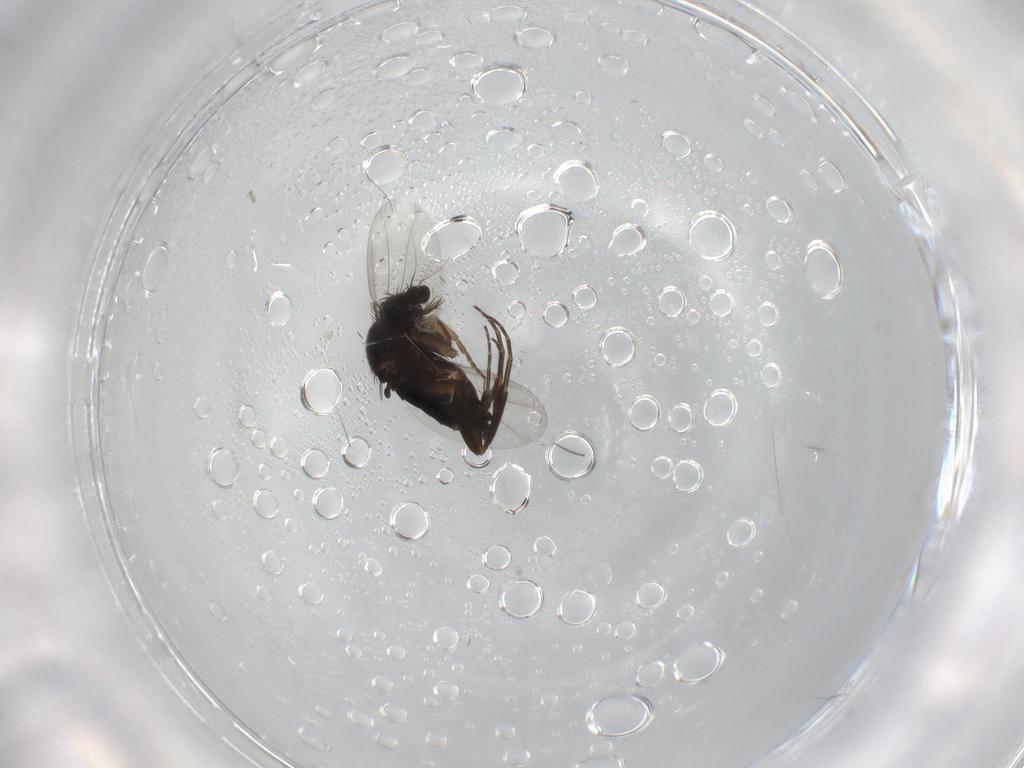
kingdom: Animalia
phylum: Arthropoda
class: Insecta
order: Diptera
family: Phoridae
